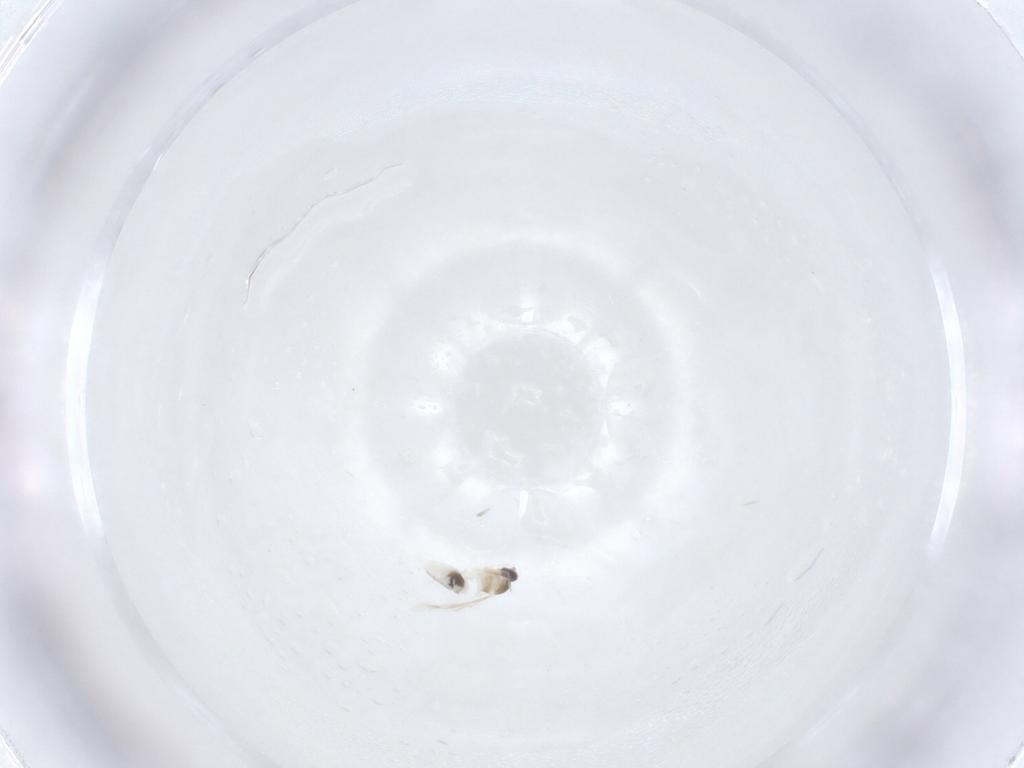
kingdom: Animalia
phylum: Arthropoda
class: Insecta
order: Diptera
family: Cecidomyiidae
